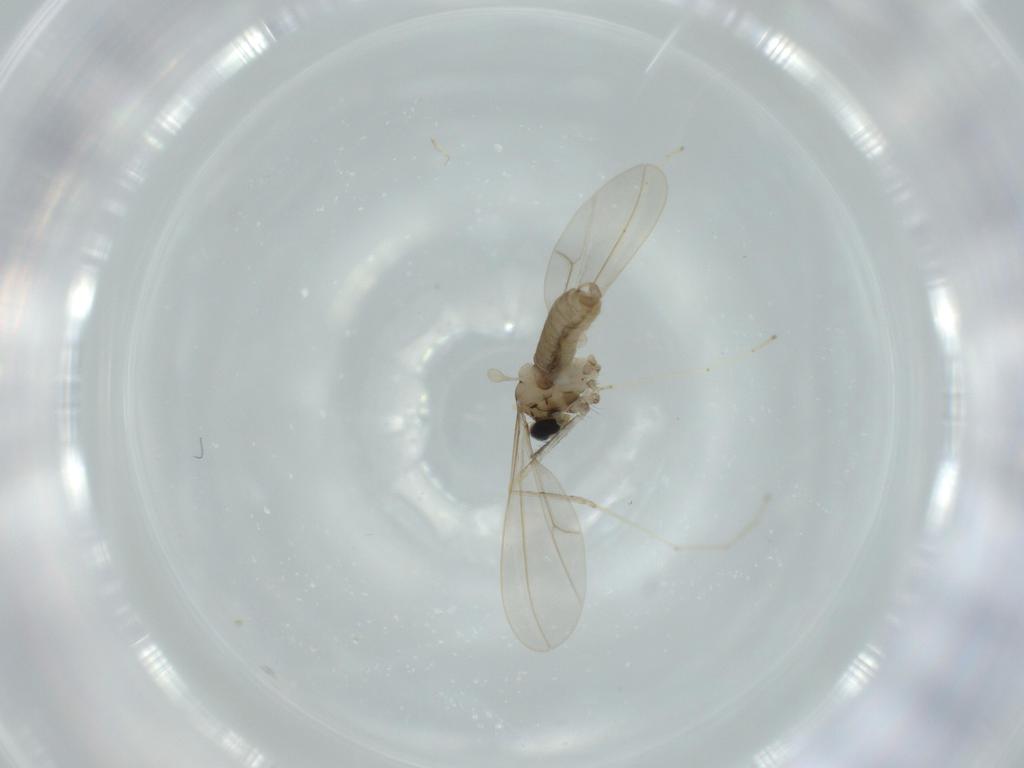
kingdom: Animalia
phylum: Arthropoda
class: Insecta
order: Diptera
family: Cecidomyiidae
